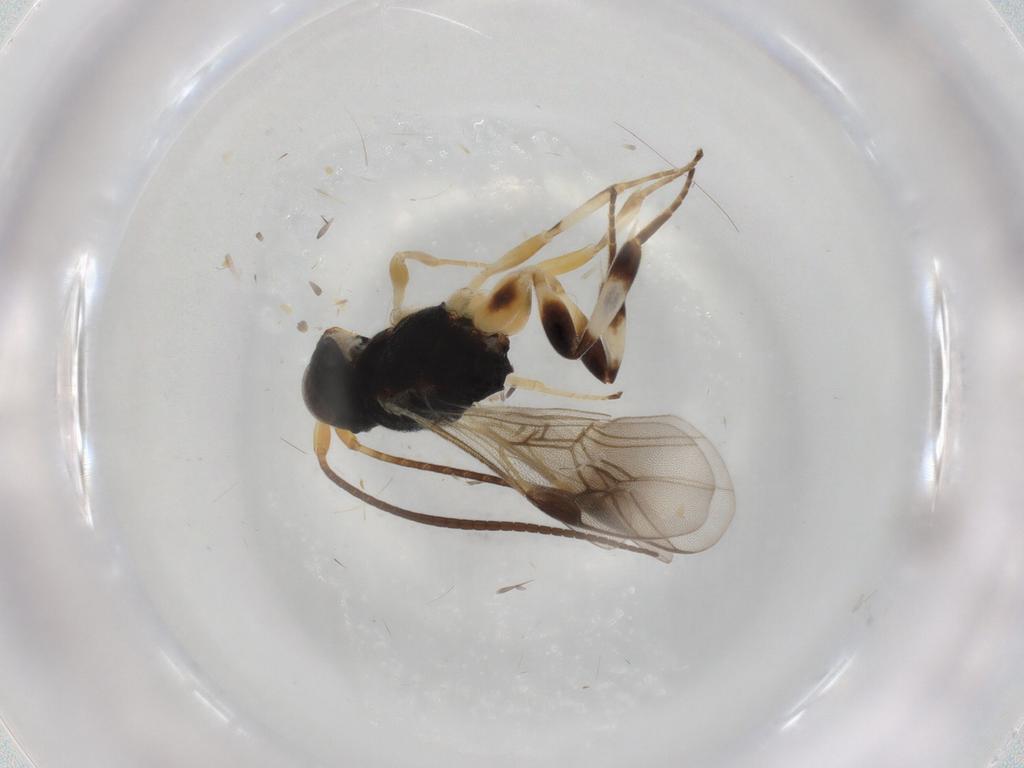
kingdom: Animalia
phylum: Arthropoda
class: Insecta
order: Hymenoptera
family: Braconidae
